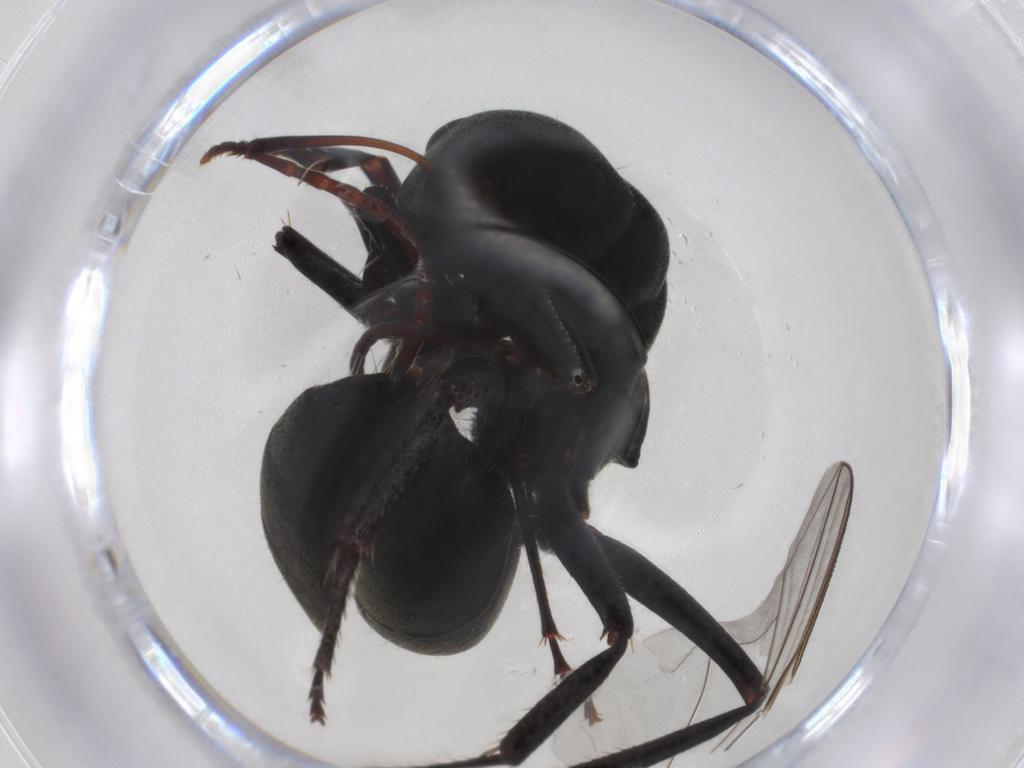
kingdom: Animalia
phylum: Arthropoda
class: Insecta
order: Hymenoptera
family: Formicidae
